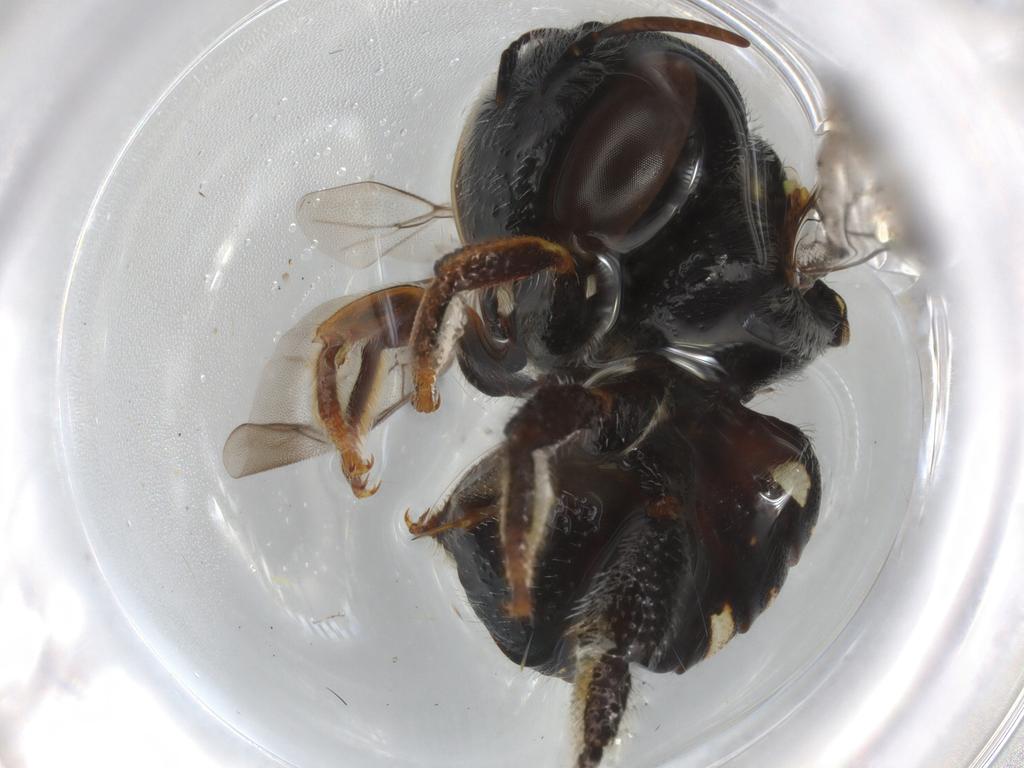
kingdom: Animalia
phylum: Arthropoda
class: Insecta
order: Hymenoptera
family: Megachilidae
